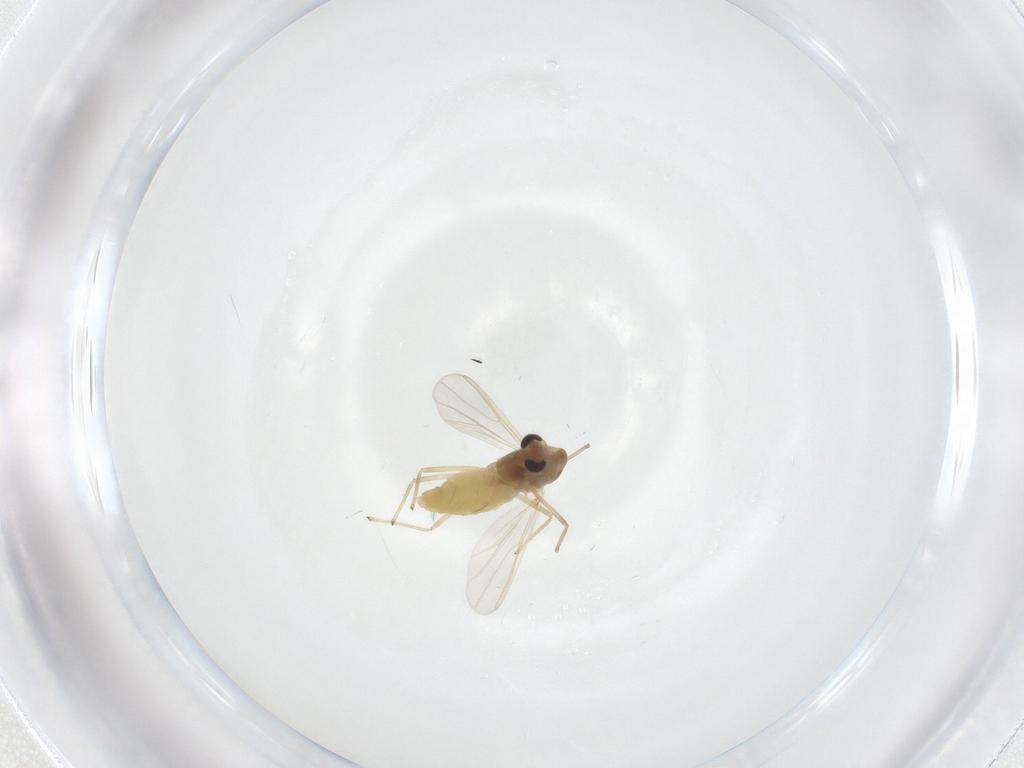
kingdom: Animalia
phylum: Arthropoda
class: Insecta
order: Diptera
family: Chironomidae
